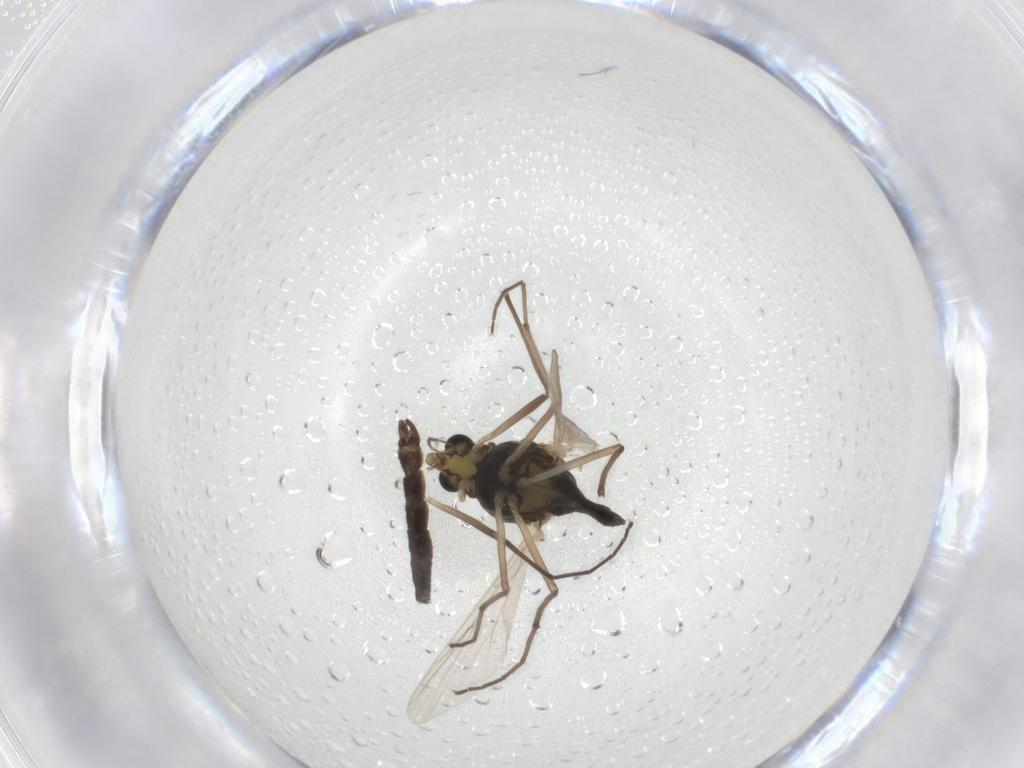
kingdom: Animalia
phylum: Arthropoda
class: Insecta
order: Diptera
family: Chironomidae
